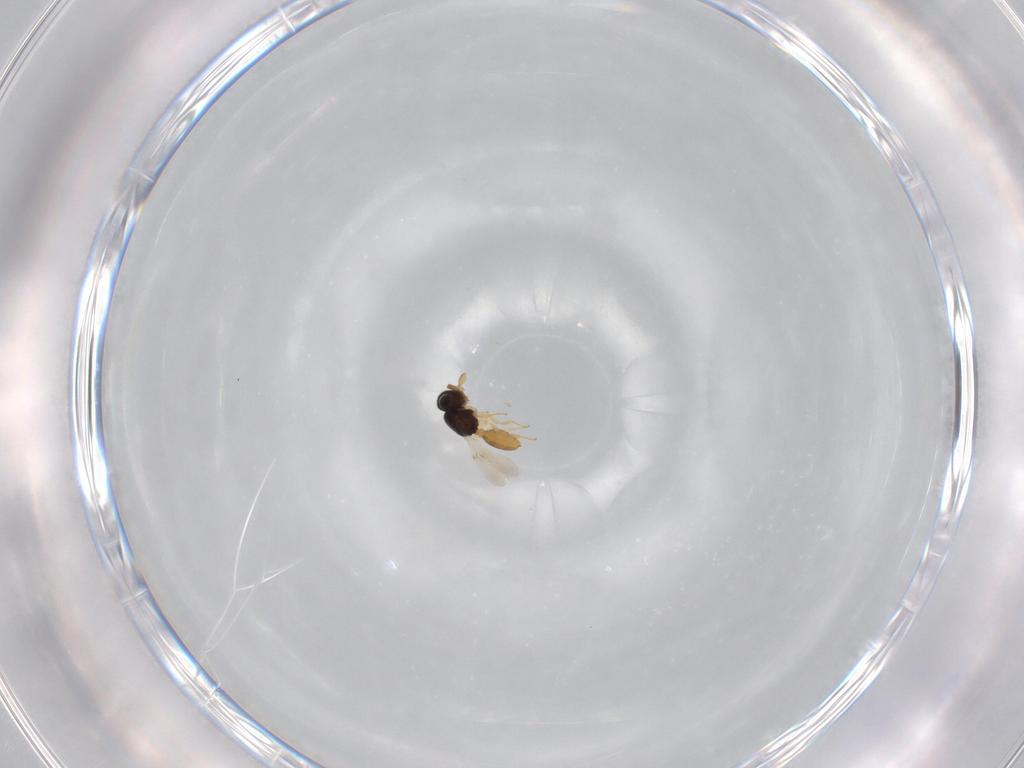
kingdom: Animalia
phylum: Arthropoda
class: Insecta
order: Hymenoptera
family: Scelionidae
